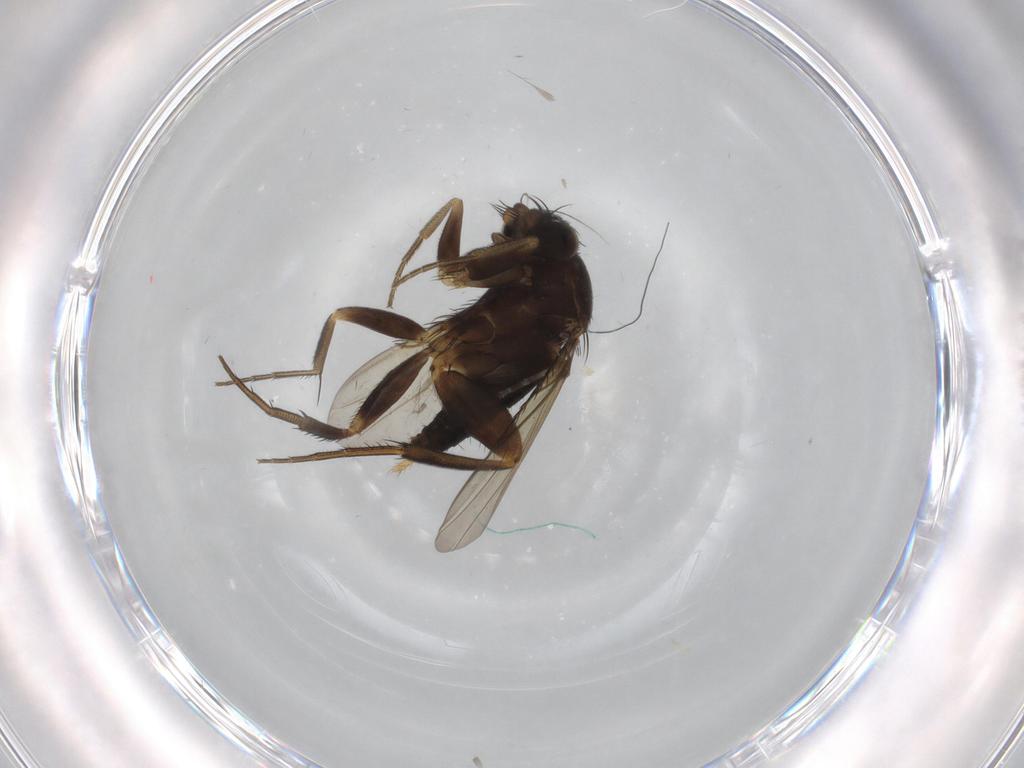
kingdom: Animalia
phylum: Arthropoda
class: Insecta
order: Diptera
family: Phoridae
